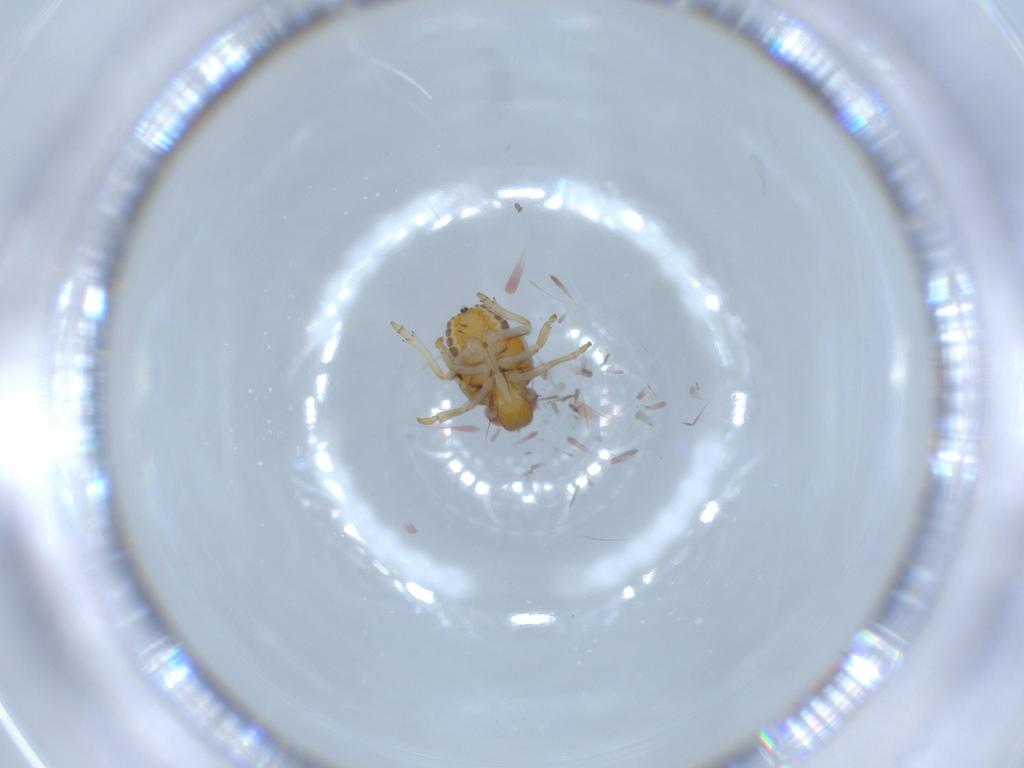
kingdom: Animalia
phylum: Arthropoda
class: Insecta
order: Hemiptera
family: Issidae
